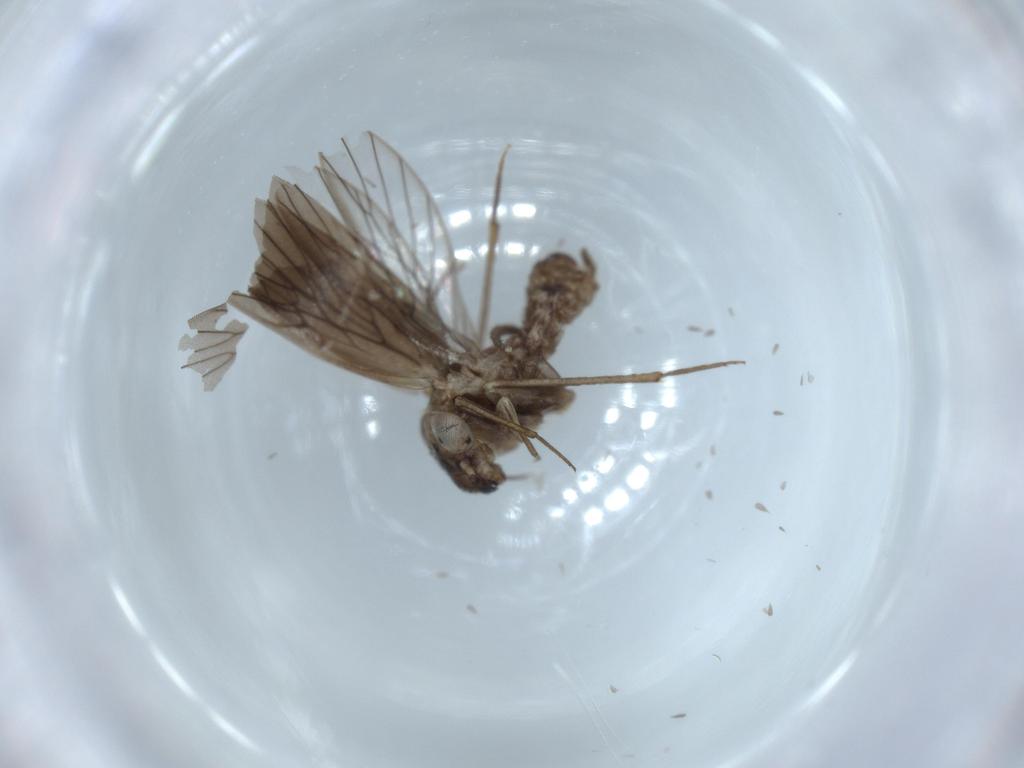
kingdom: Animalia
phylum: Arthropoda
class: Insecta
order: Psocodea
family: Lepidopsocidae
